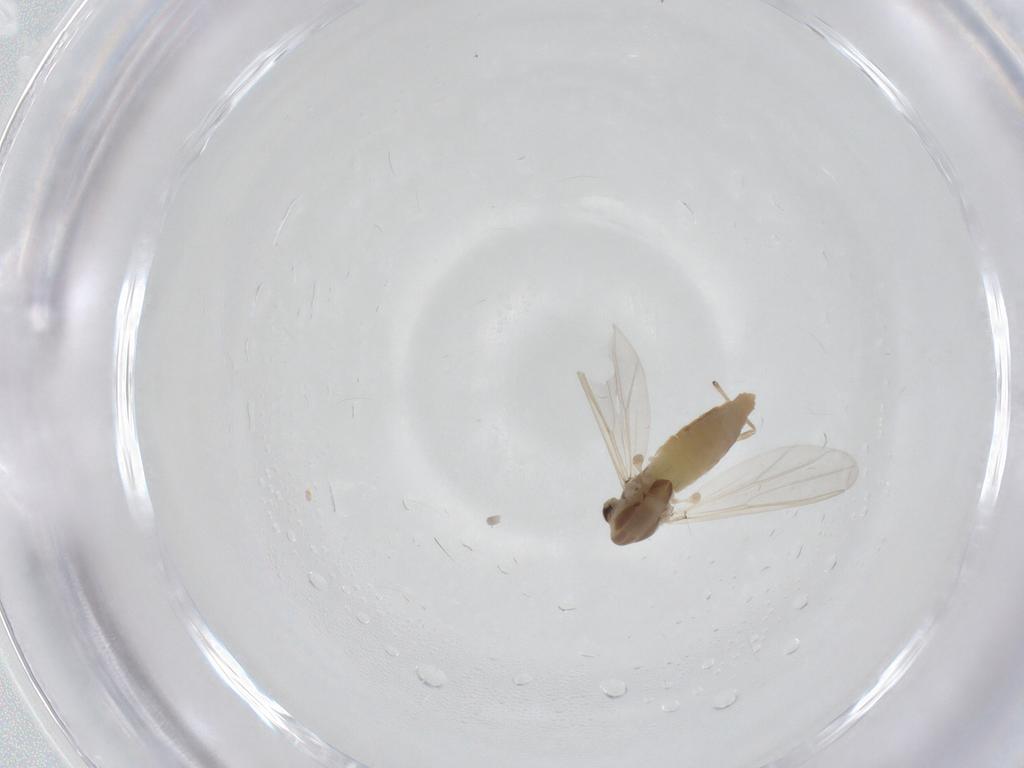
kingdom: Animalia
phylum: Arthropoda
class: Insecta
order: Diptera
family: Chironomidae
